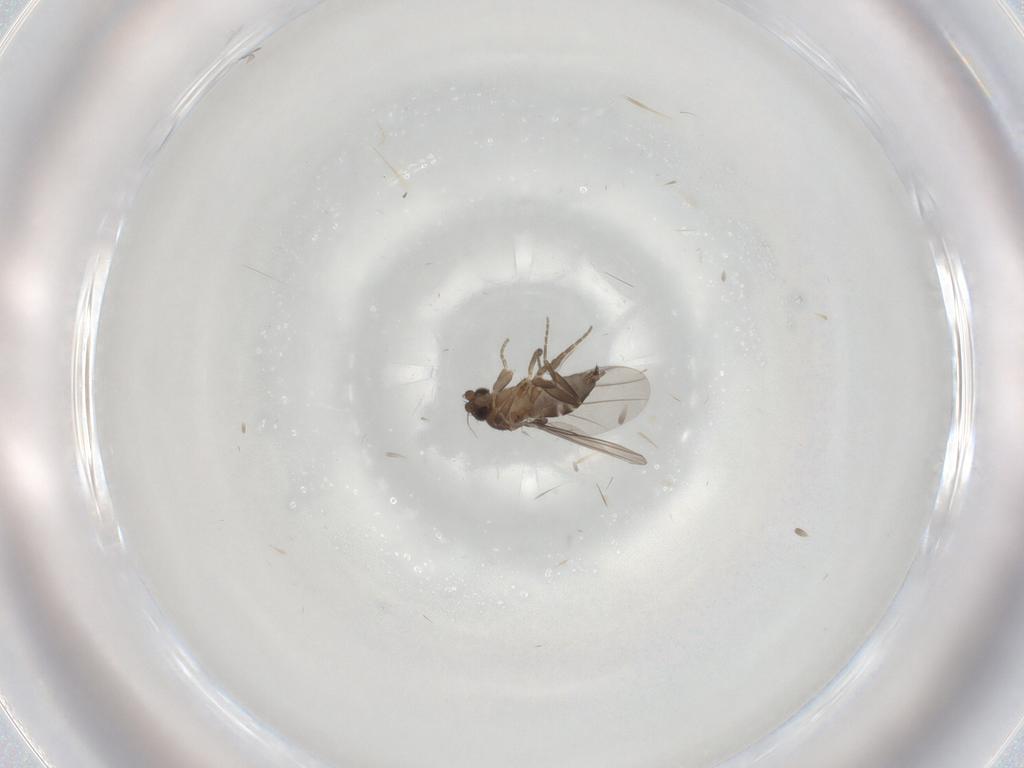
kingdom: Animalia
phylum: Arthropoda
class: Insecta
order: Diptera
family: Phoridae
